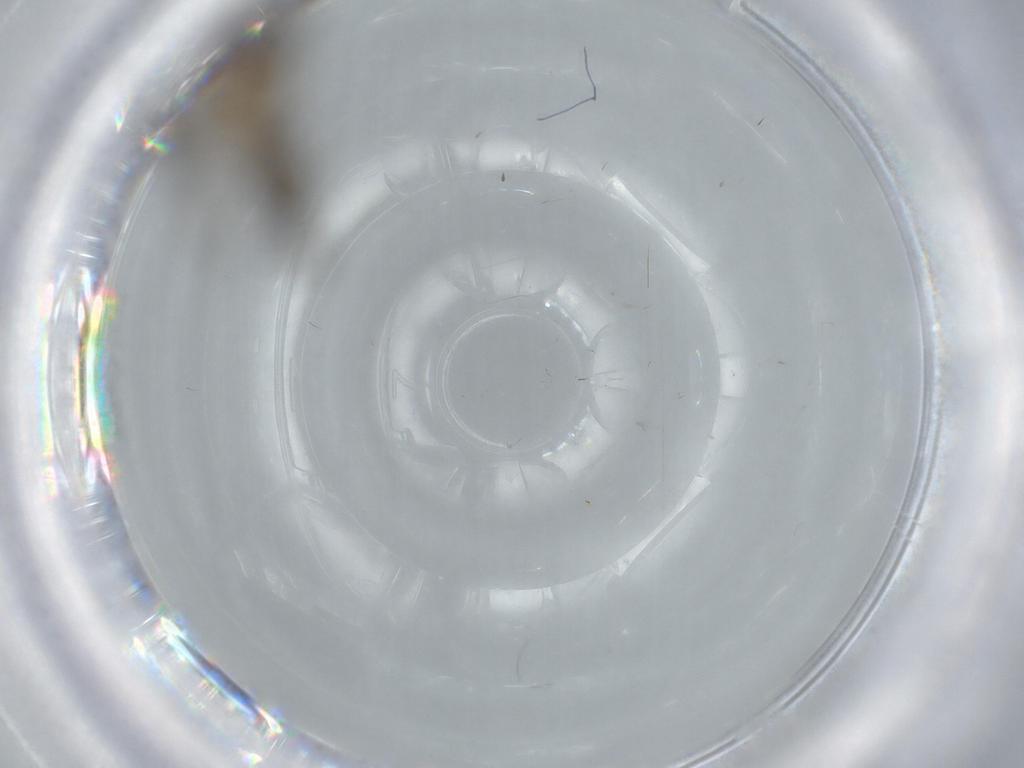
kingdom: Animalia
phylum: Arthropoda
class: Insecta
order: Diptera
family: Sciaridae
